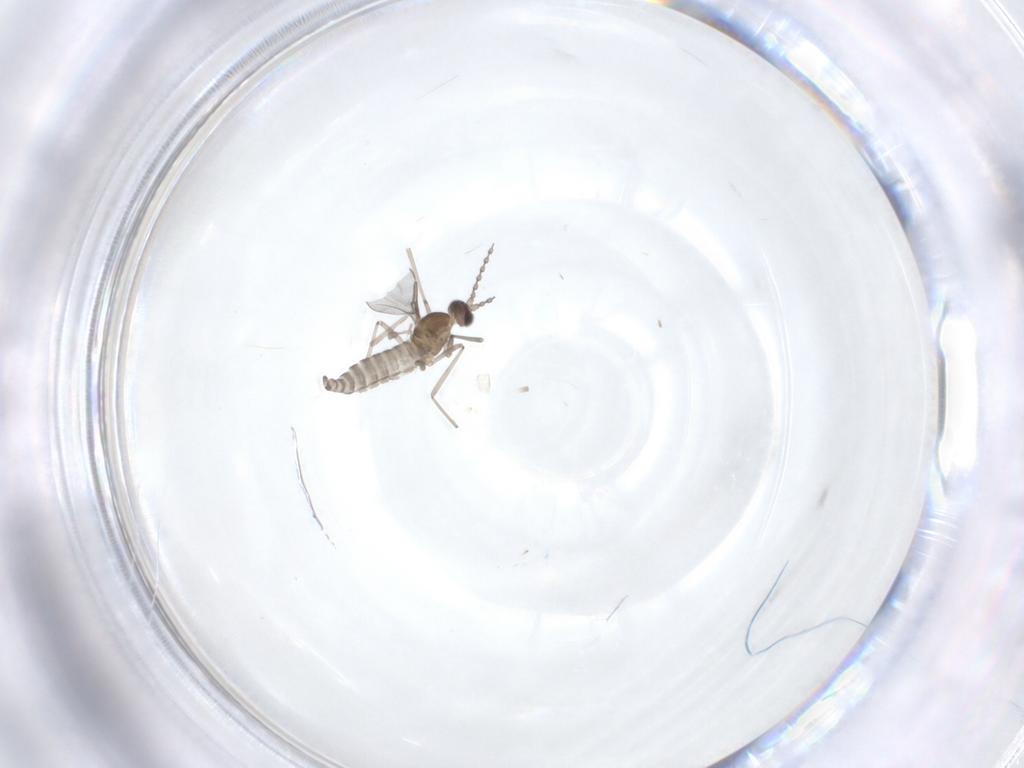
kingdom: Animalia
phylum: Arthropoda
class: Insecta
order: Diptera
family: Cecidomyiidae
